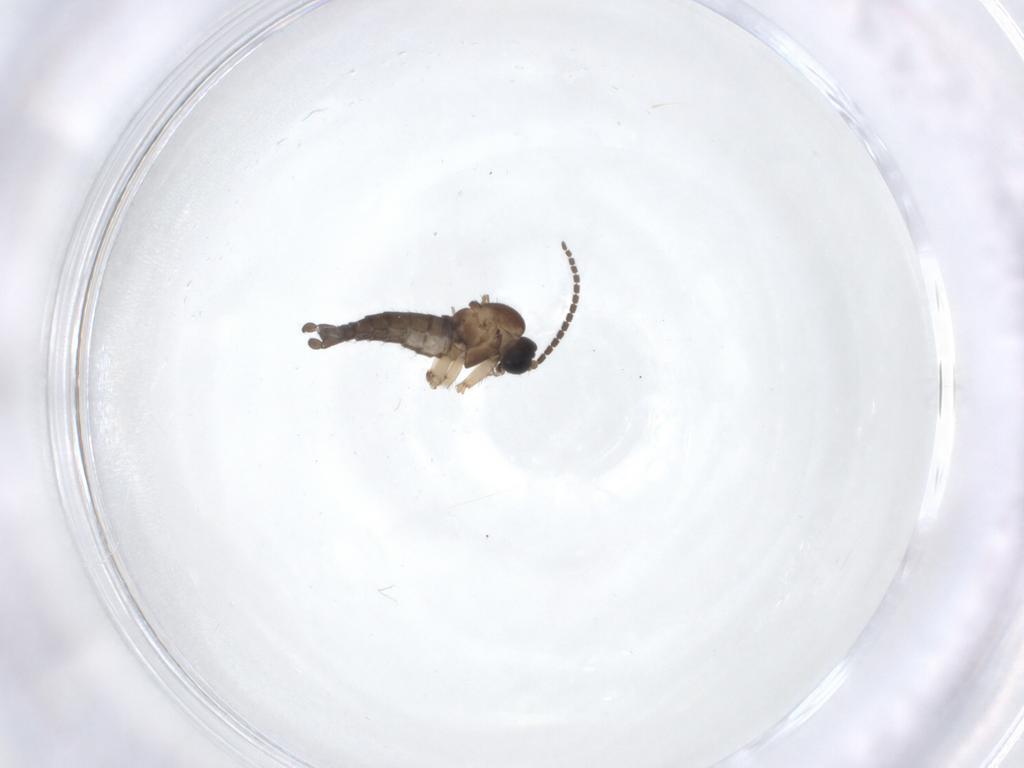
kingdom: Animalia
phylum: Arthropoda
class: Insecta
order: Diptera
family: Sciaridae
